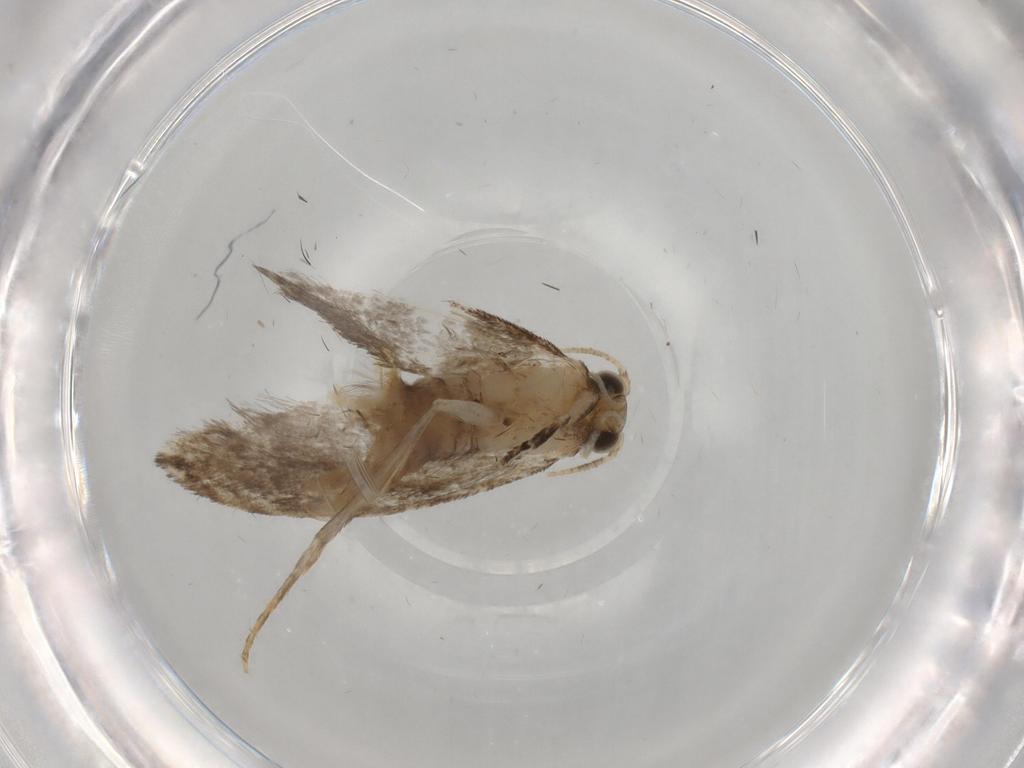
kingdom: Animalia
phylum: Arthropoda
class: Insecta
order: Lepidoptera
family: Tineidae
